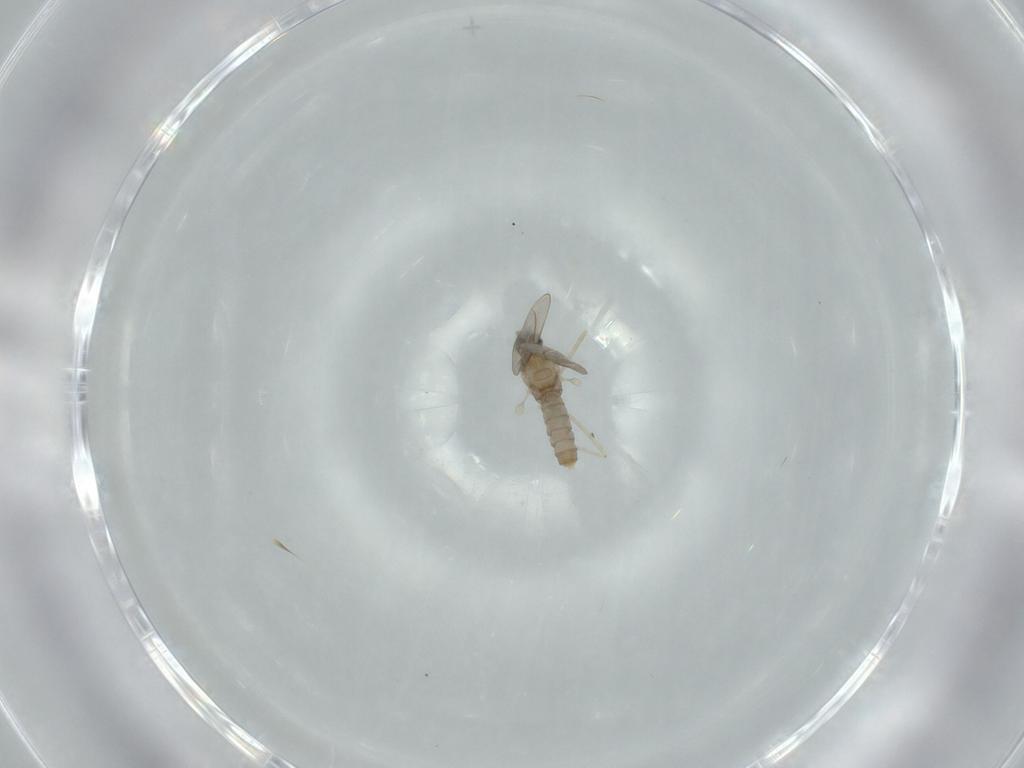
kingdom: Animalia
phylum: Arthropoda
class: Insecta
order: Diptera
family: Cecidomyiidae
